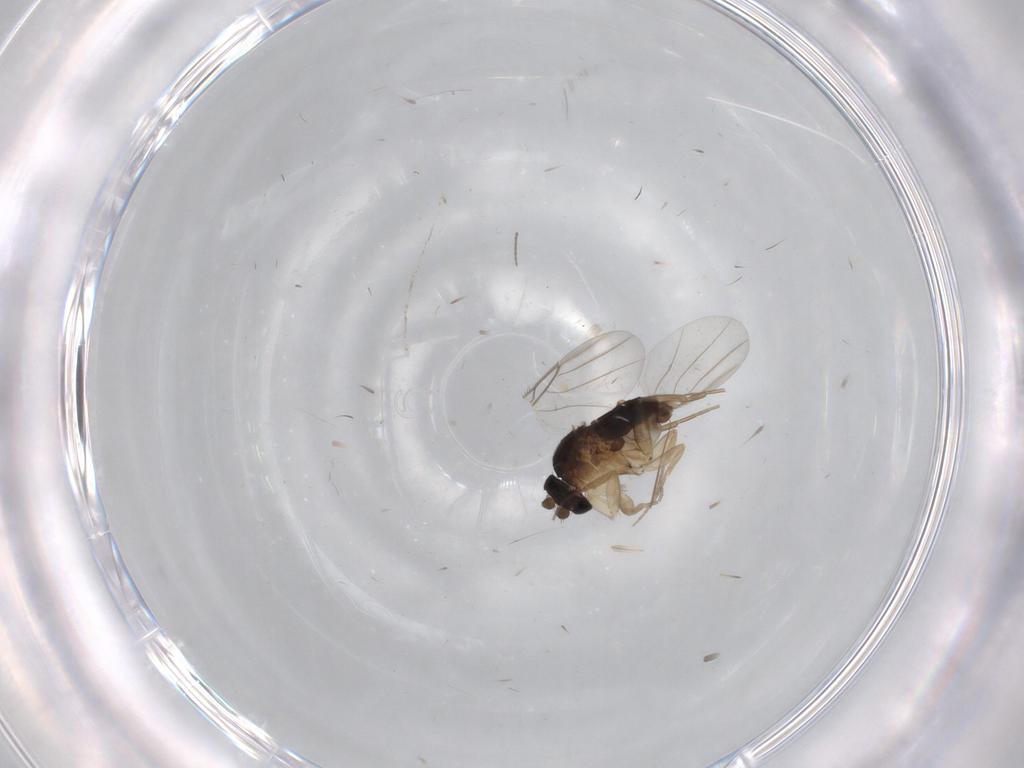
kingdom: Animalia
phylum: Arthropoda
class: Insecta
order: Diptera
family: Phoridae
